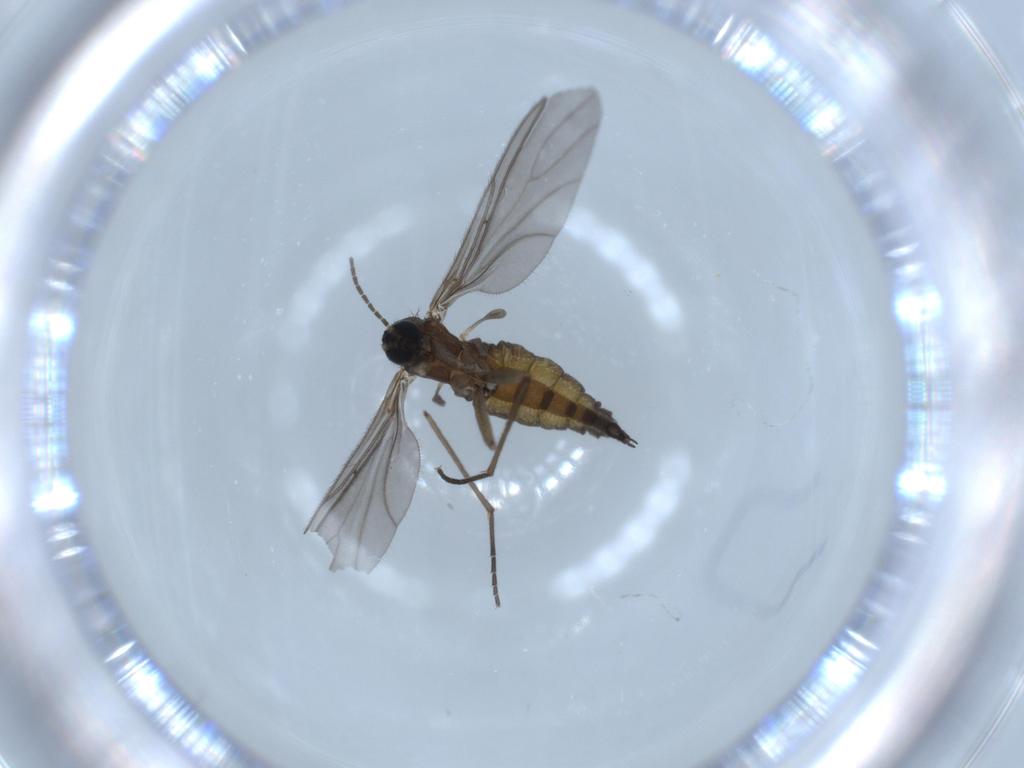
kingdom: Animalia
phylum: Arthropoda
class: Insecta
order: Diptera
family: Sciaridae
